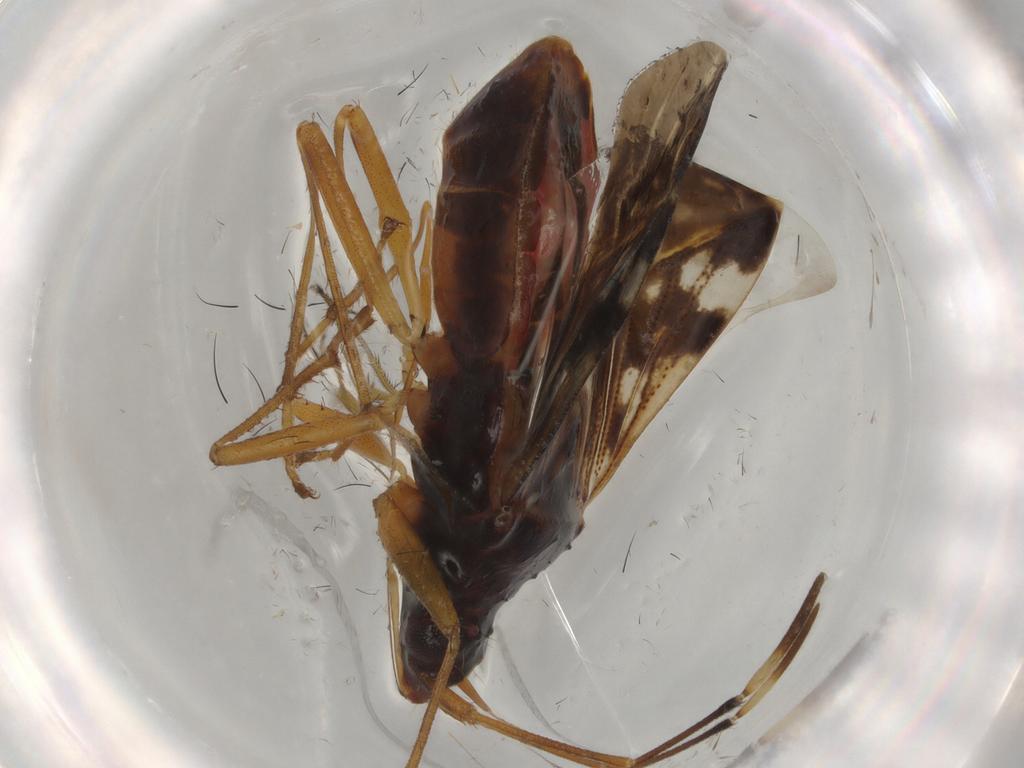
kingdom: Animalia
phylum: Arthropoda
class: Insecta
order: Hemiptera
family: Rhyparochromidae
